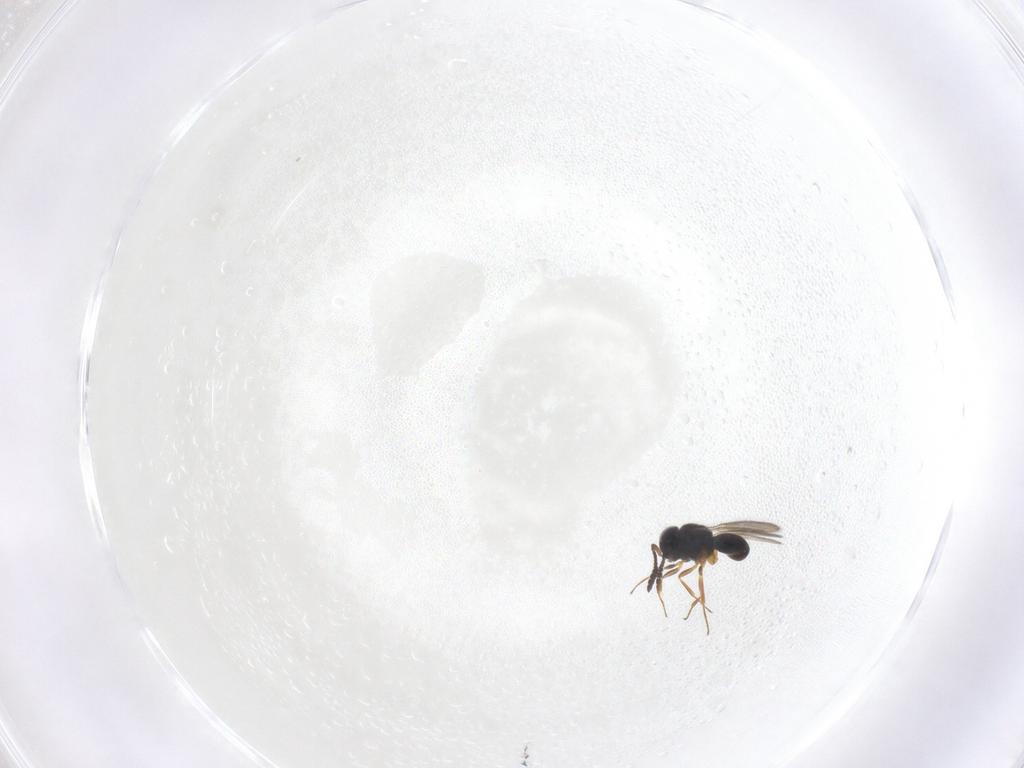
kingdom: Animalia
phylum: Arthropoda
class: Insecta
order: Hymenoptera
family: Scelionidae
